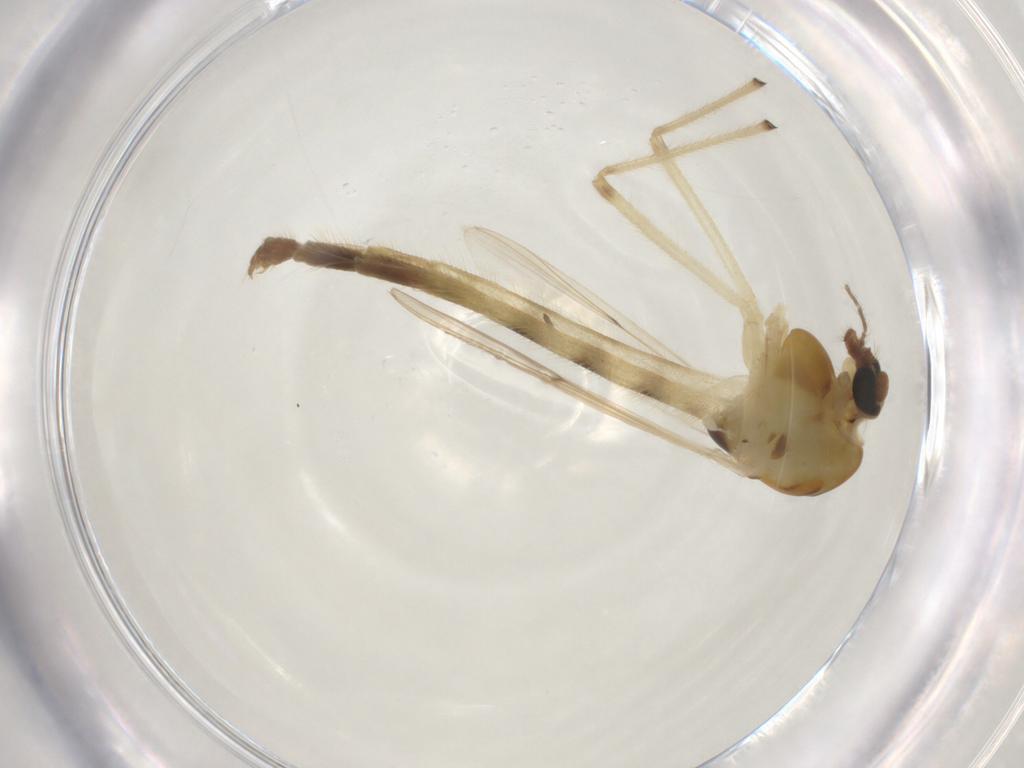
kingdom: Animalia
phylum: Arthropoda
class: Insecta
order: Diptera
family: Chironomidae
